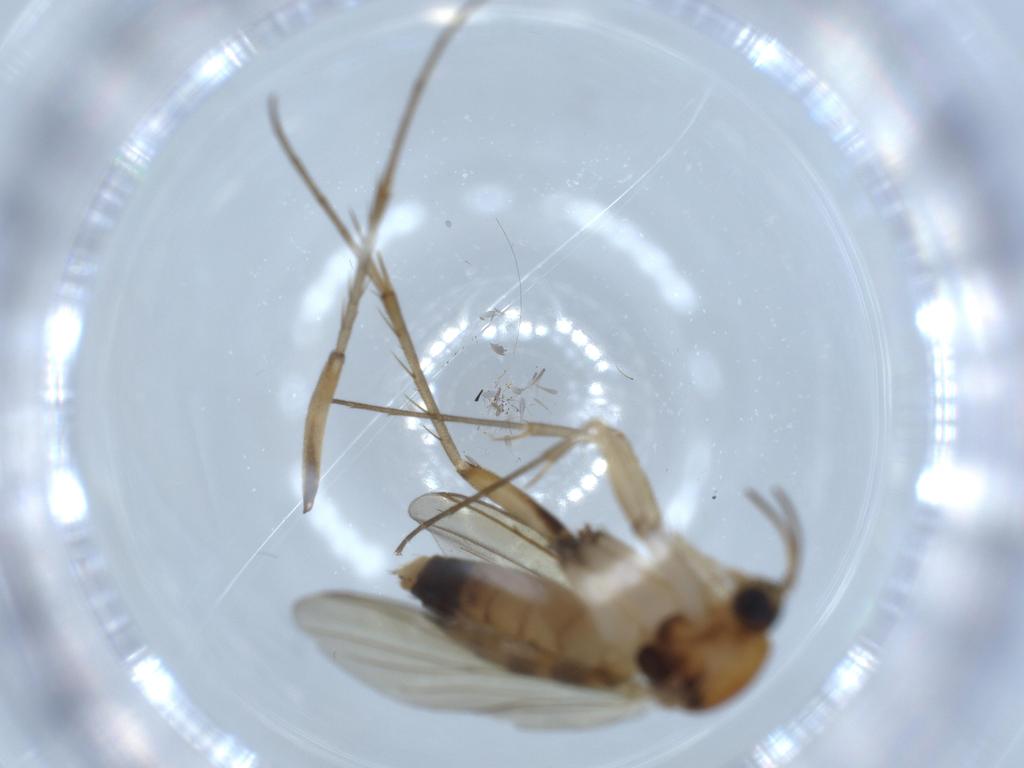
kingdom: Animalia
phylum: Arthropoda
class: Insecta
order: Diptera
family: Mycetophilidae
